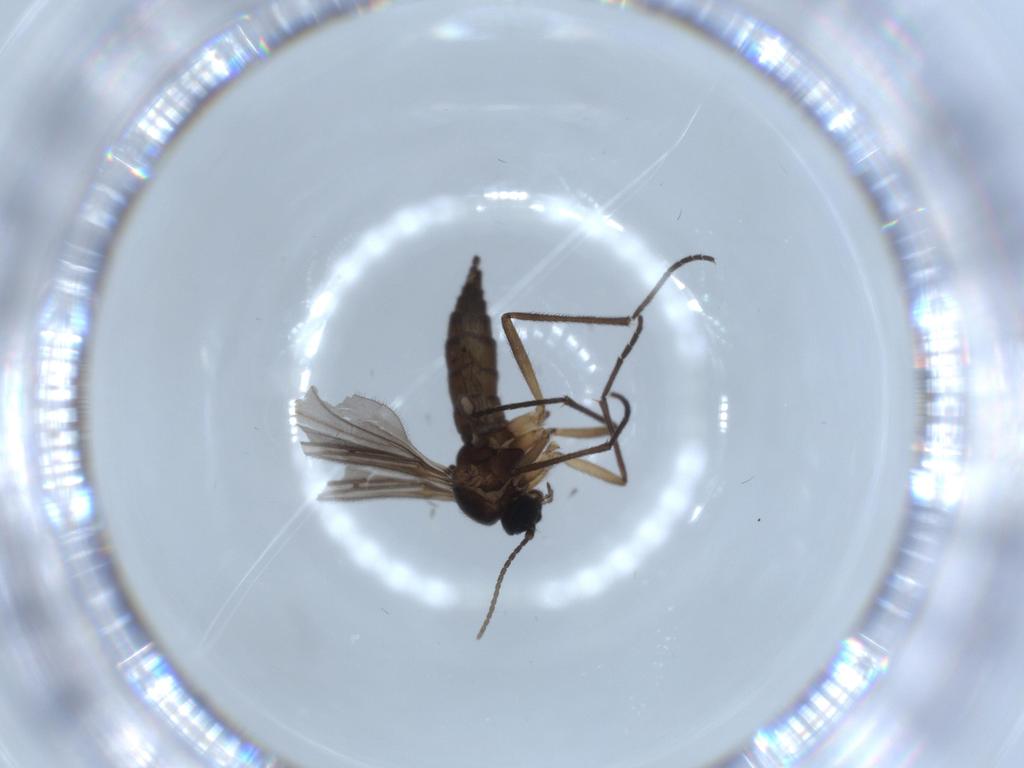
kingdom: Animalia
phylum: Arthropoda
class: Insecta
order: Diptera
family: Sciaridae
